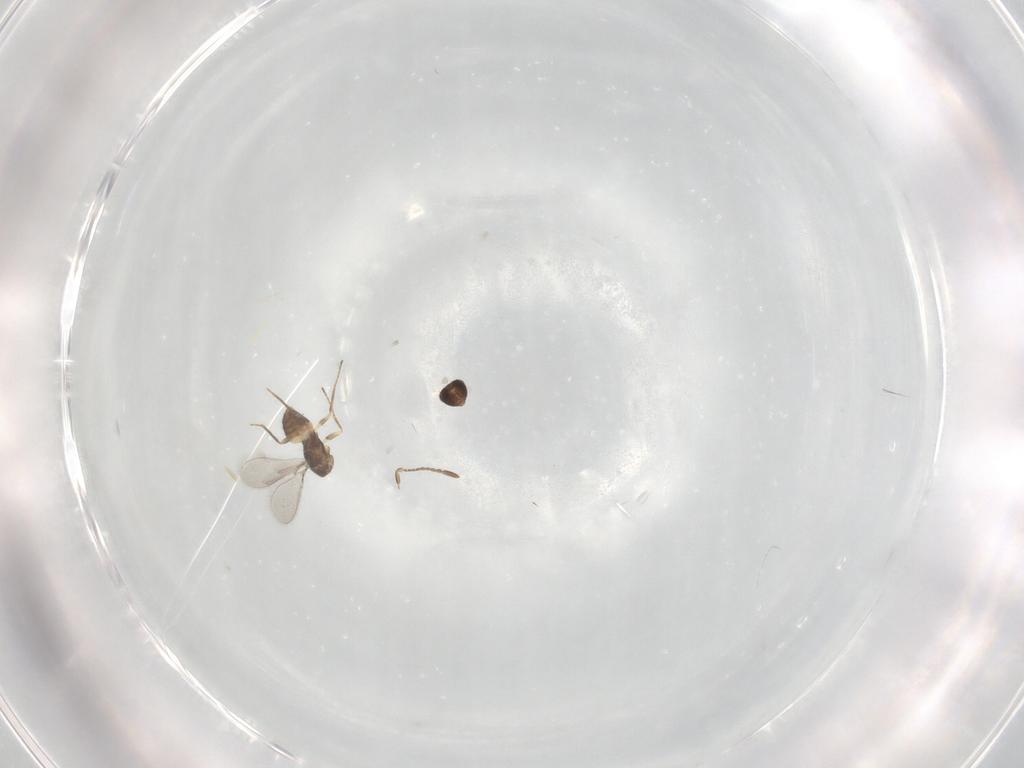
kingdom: Animalia
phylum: Arthropoda
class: Insecta
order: Hymenoptera
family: Mymaridae
